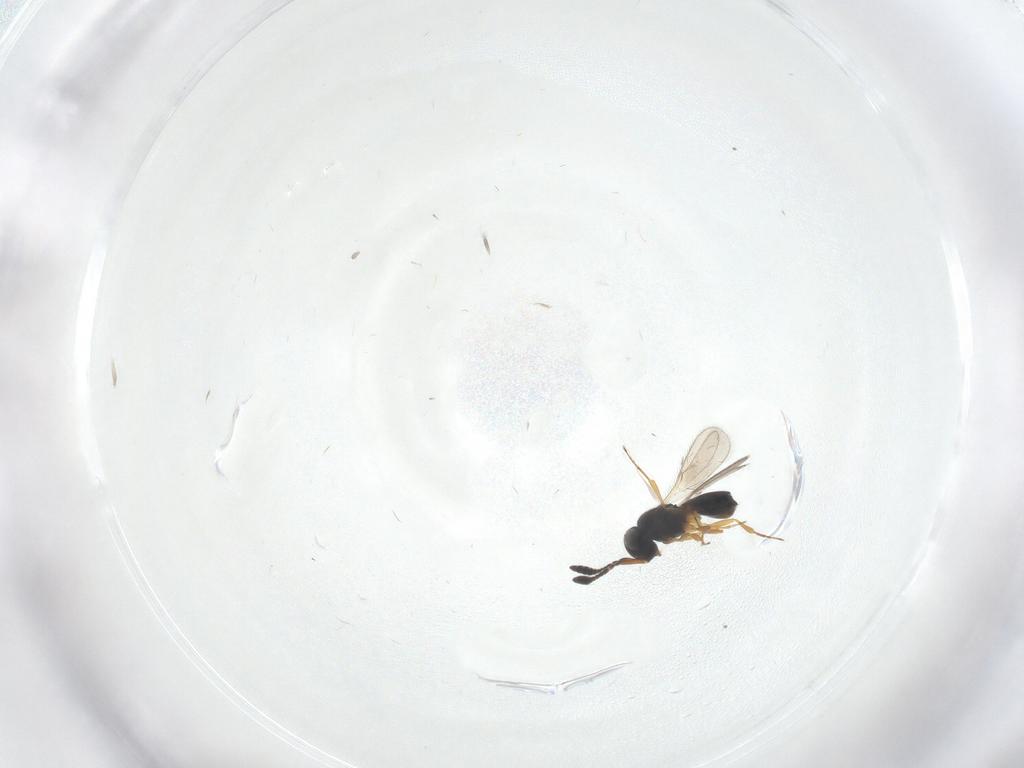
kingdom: Animalia
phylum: Arthropoda
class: Insecta
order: Hymenoptera
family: Scelionidae
